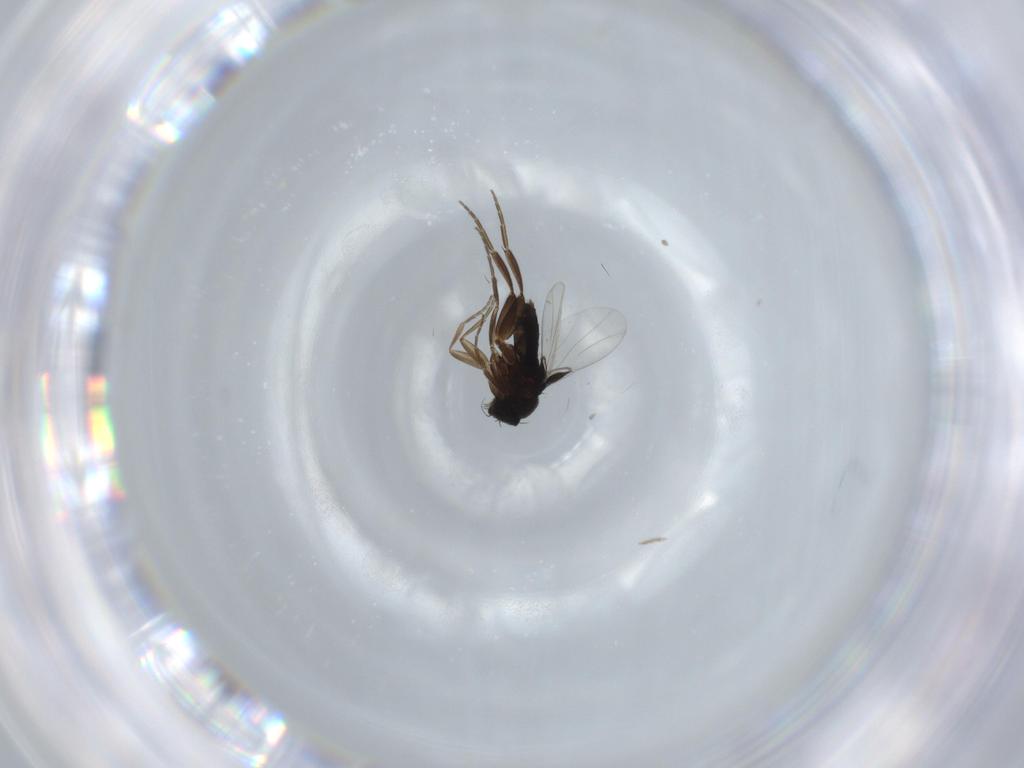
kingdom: Animalia
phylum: Arthropoda
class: Insecta
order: Diptera
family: Phoridae
